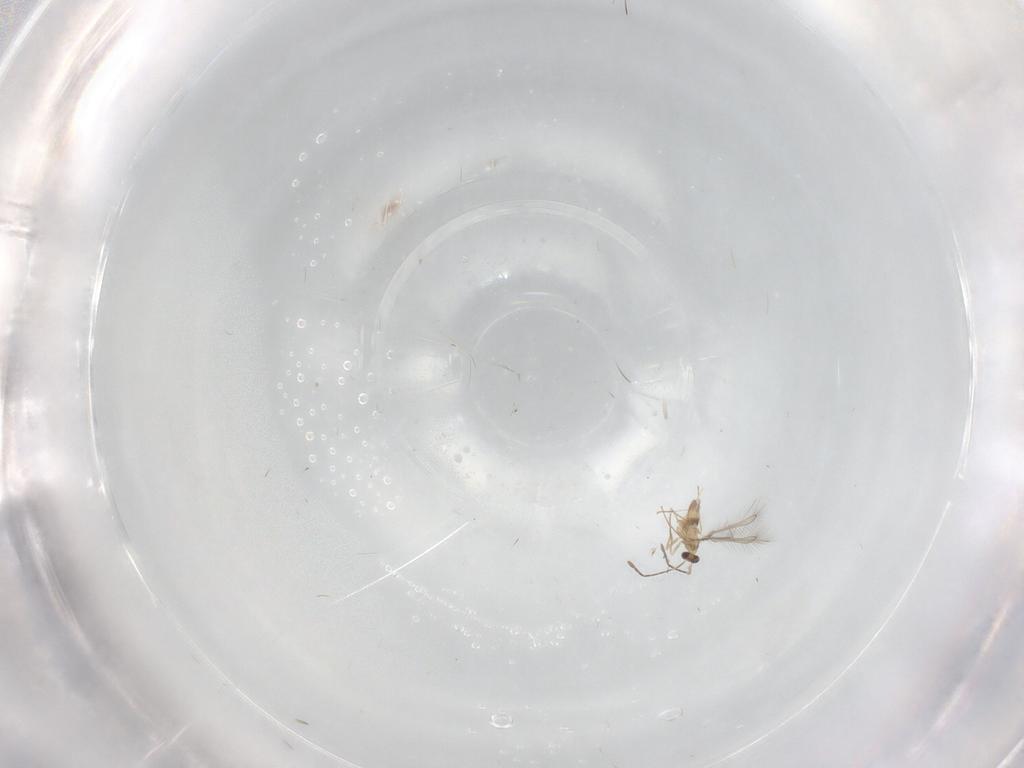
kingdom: Animalia
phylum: Arthropoda
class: Insecta
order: Hymenoptera
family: Mymaridae
